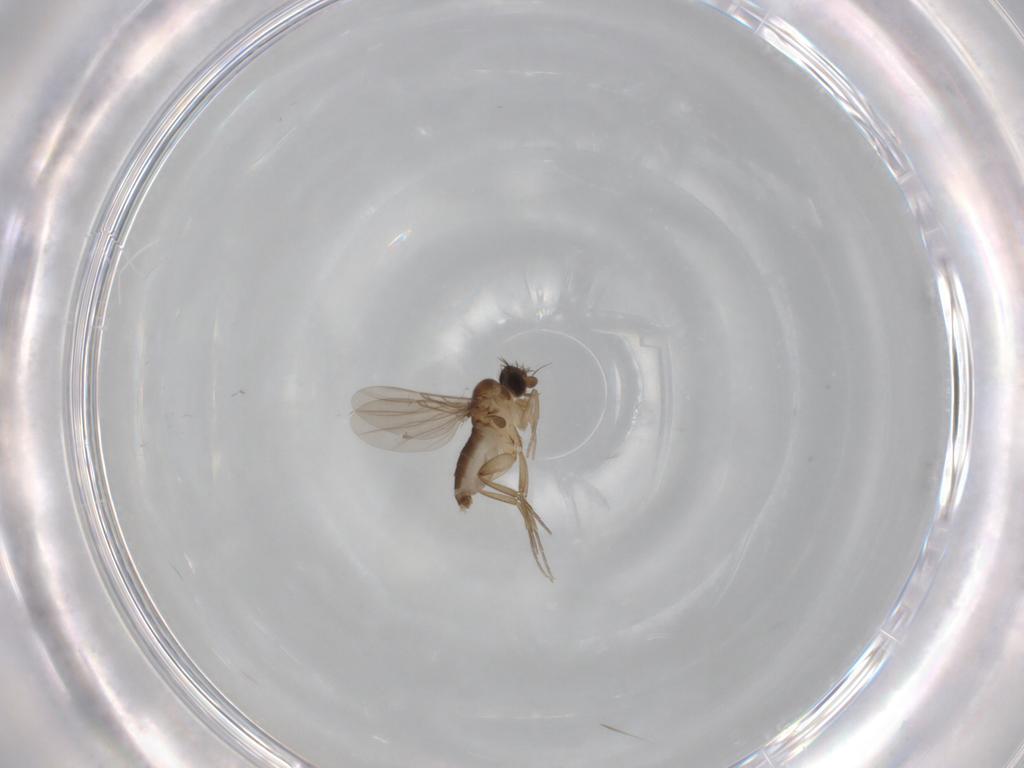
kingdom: Animalia
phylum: Arthropoda
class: Insecta
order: Diptera
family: Phoridae
